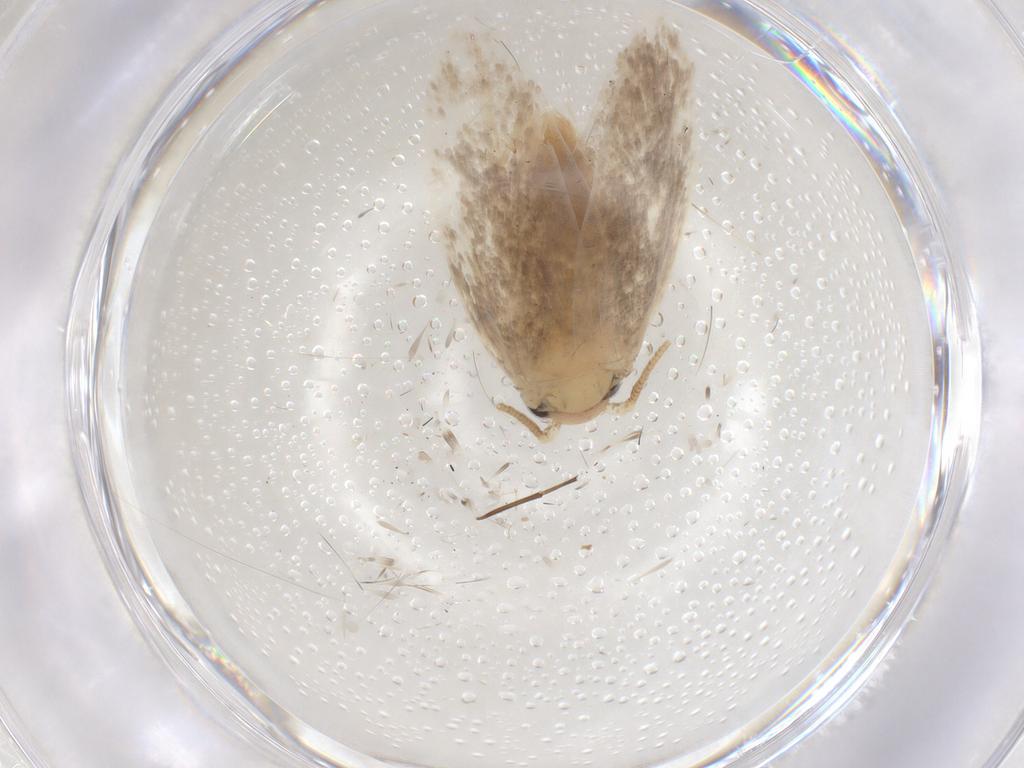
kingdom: Animalia
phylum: Arthropoda
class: Insecta
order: Lepidoptera
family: Tineidae
